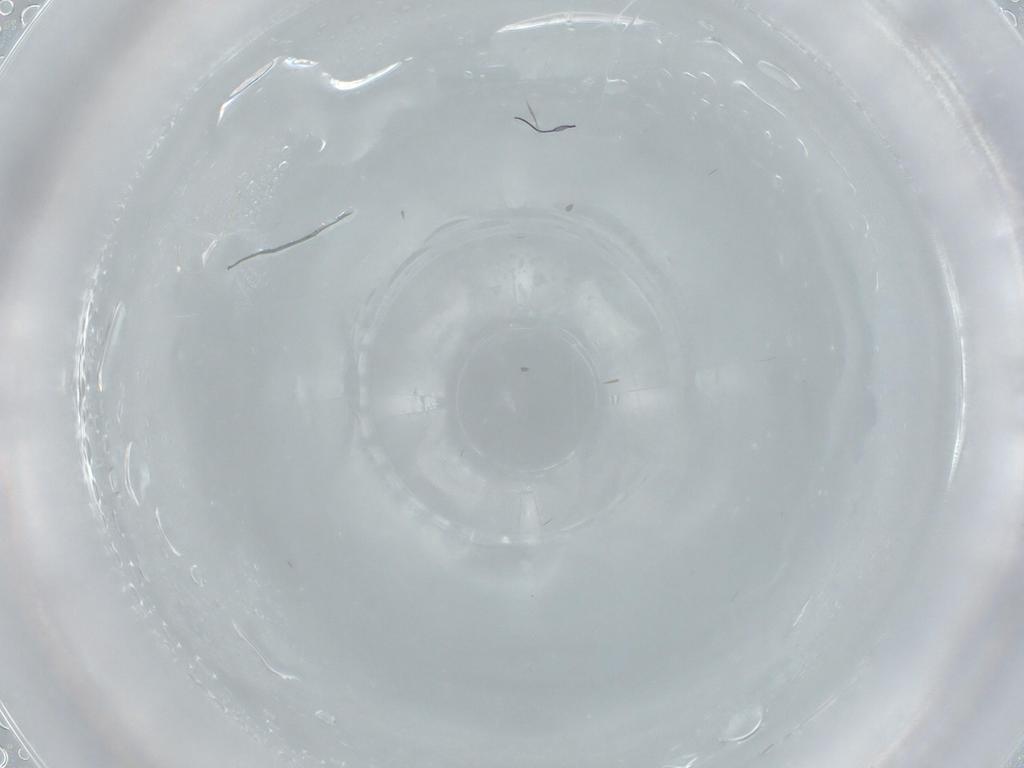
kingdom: Animalia
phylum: Arthropoda
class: Insecta
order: Blattodea
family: Ectobiidae
